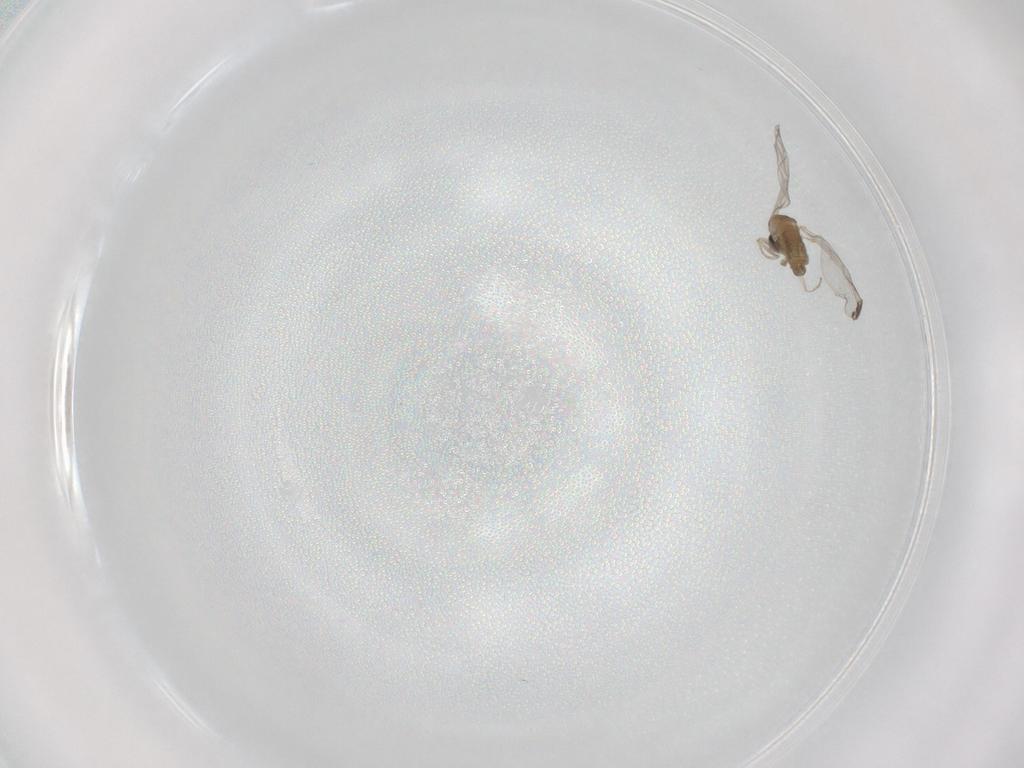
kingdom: Animalia
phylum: Arthropoda
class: Insecta
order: Diptera
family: Cecidomyiidae
